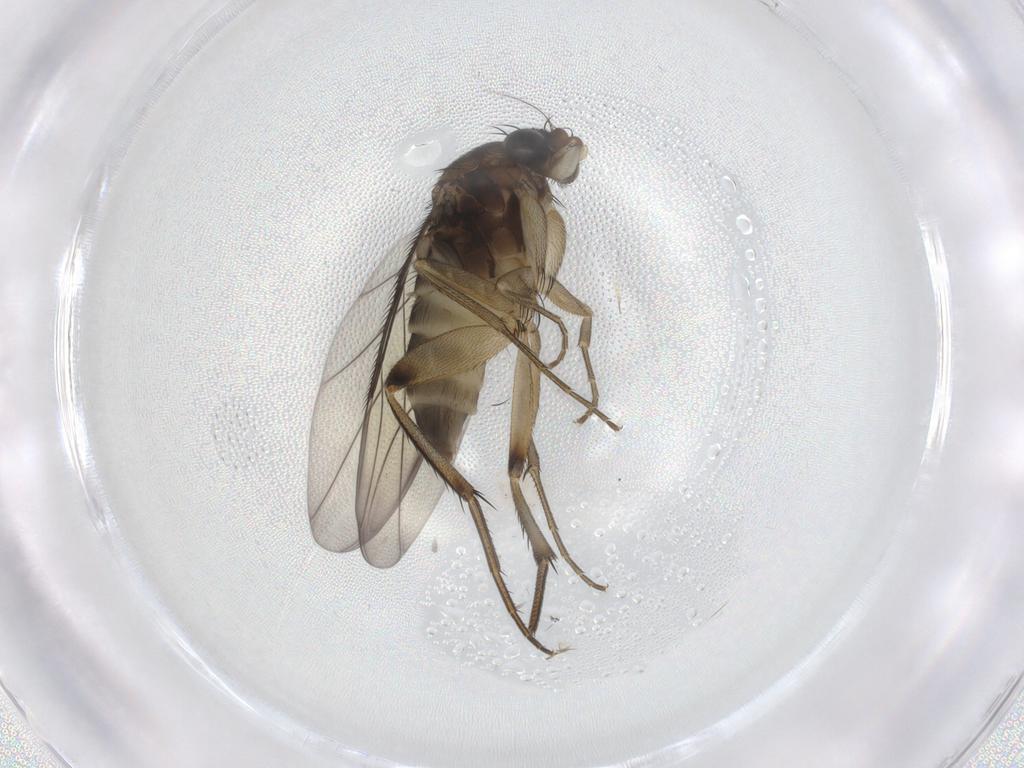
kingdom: Animalia
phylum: Arthropoda
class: Insecta
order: Diptera
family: Phoridae
